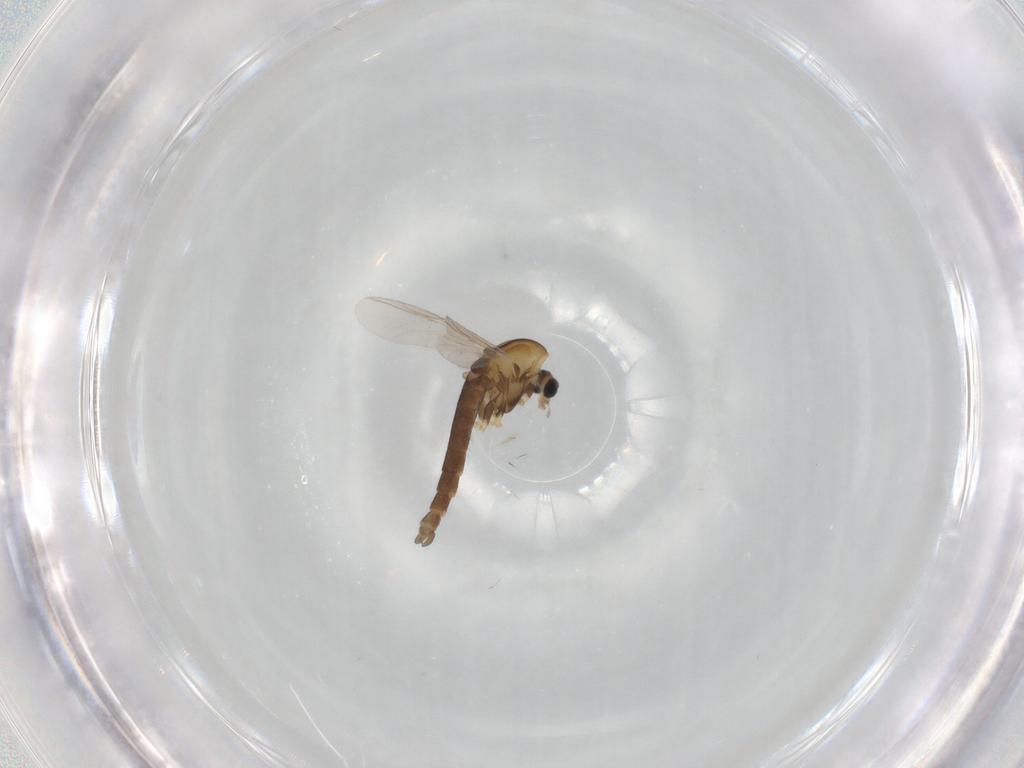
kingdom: Animalia
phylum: Arthropoda
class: Insecta
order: Diptera
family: Chironomidae
